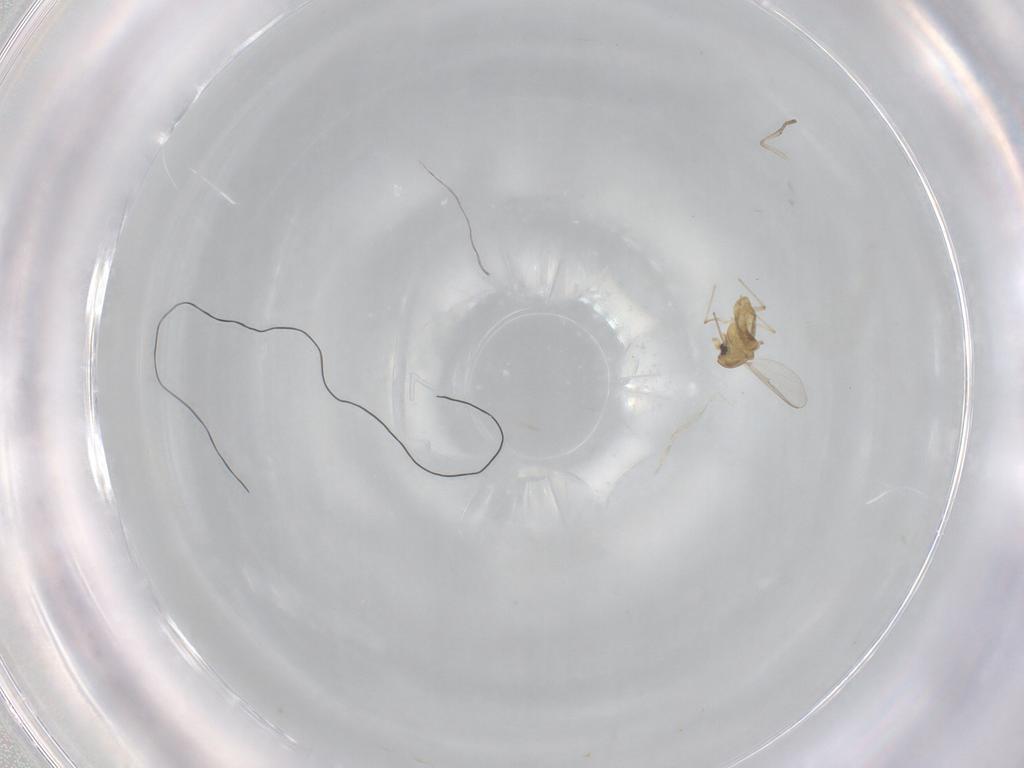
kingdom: Animalia
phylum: Arthropoda
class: Insecta
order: Diptera
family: Chironomidae
